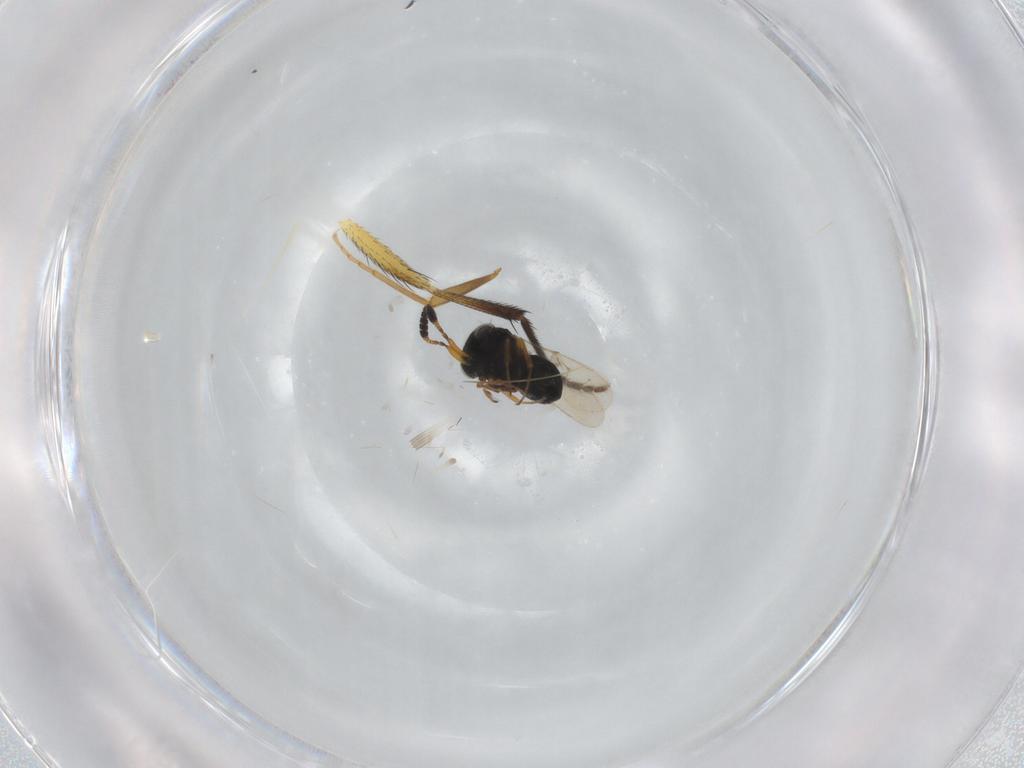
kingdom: Animalia
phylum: Arthropoda
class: Insecta
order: Hymenoptera
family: Scelionidae
